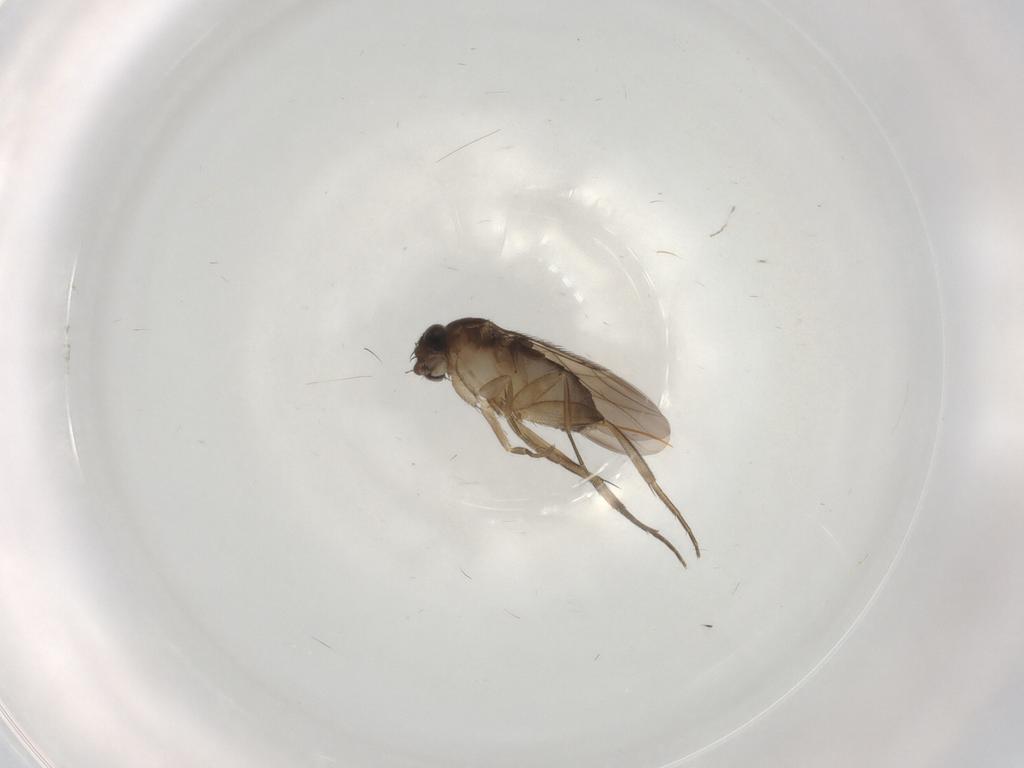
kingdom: Animalia
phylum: Arthropoda
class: Insecta
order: Diptera
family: Phoridae
